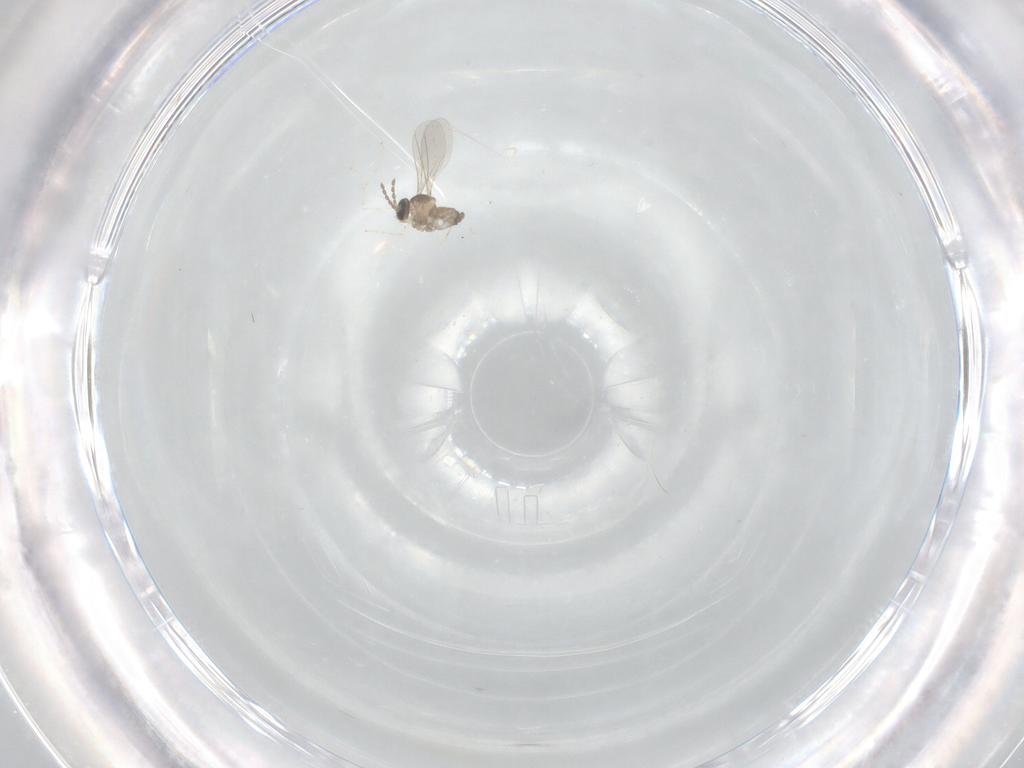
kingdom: Animalia
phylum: Arthropoda
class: Insecta
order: Diptera
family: Cecidomyiidae
